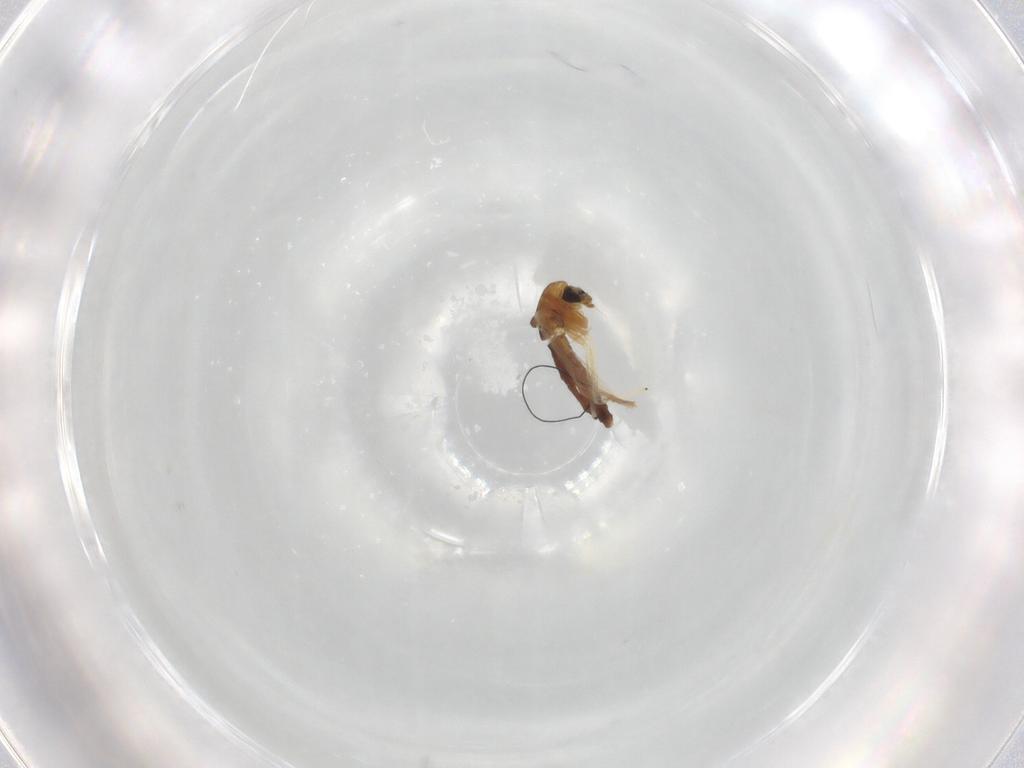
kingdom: Animalia
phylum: Arthropoda
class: Insecta
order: Diptera
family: Chironomidae
